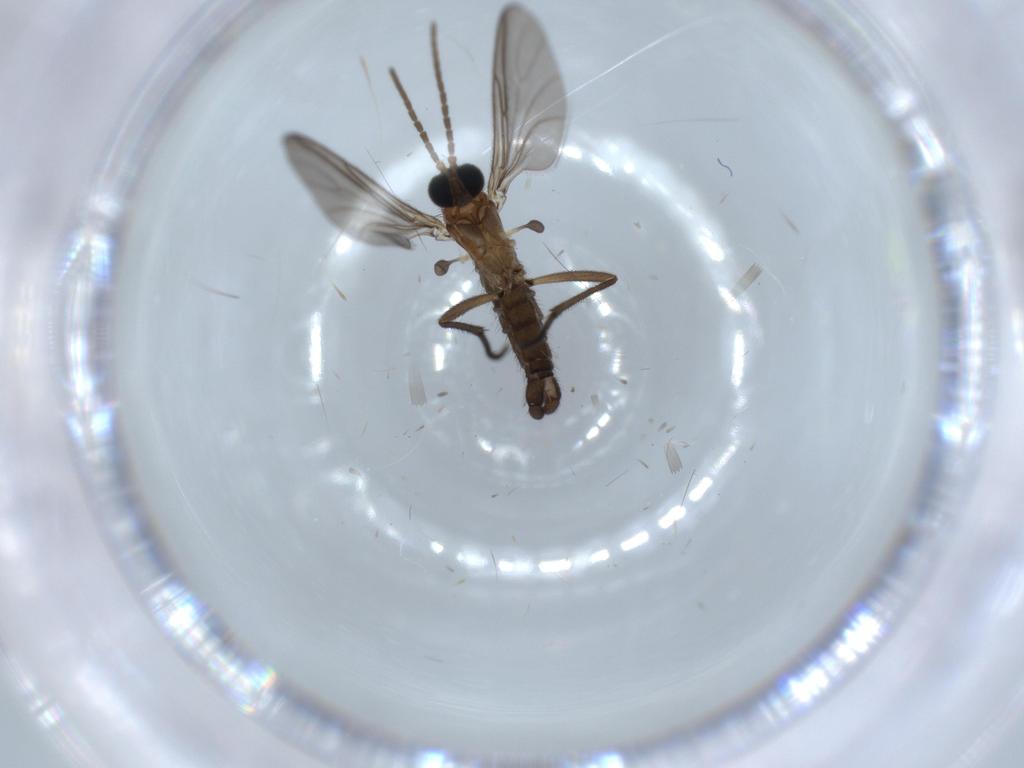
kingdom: Animalia
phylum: Arthropoda
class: Insecta
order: Diptera
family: Sciaridae
